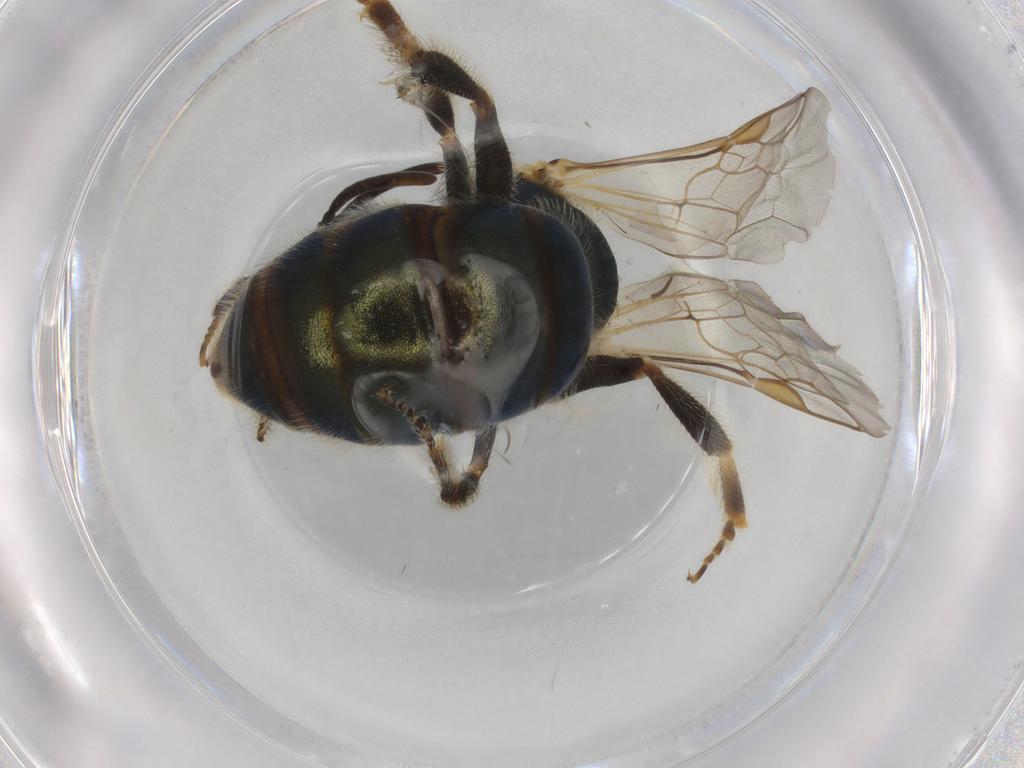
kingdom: Animalia
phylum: Arthropoda
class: Insecta
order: Hymenoptera
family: Halictidae
